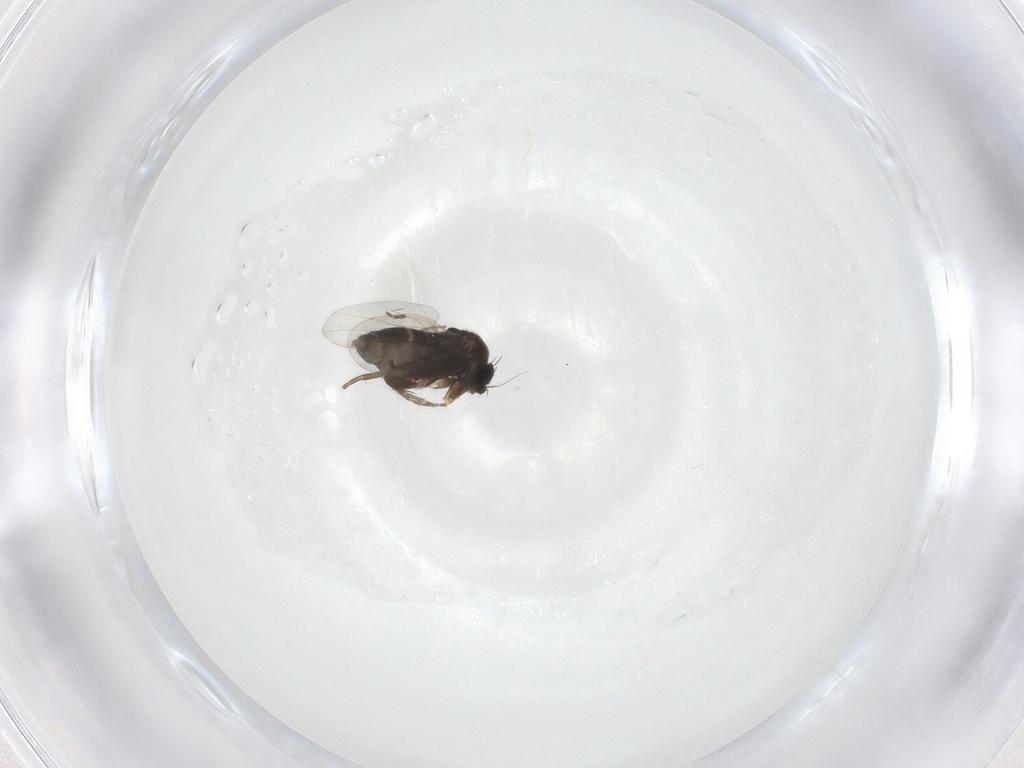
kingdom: Animalia
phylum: Arthropoda
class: Insecta
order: Diptera
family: Phoridae
